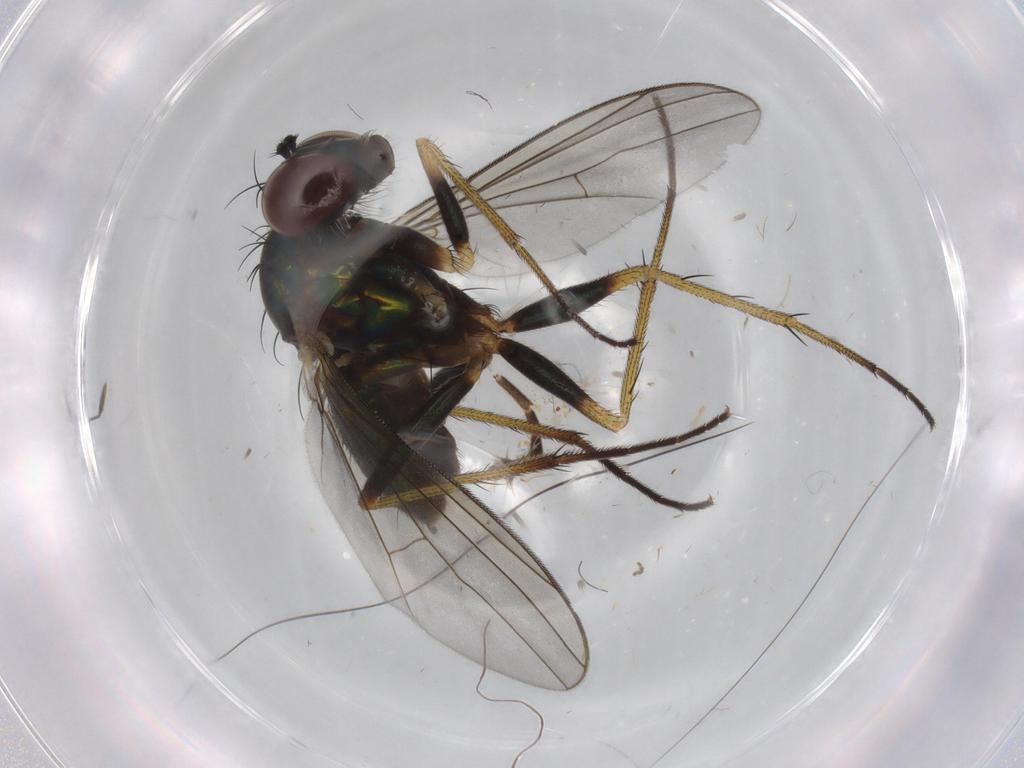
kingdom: Animalia
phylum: Arthropoda
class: Insecta
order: Diptera
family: Dolichopodidae
